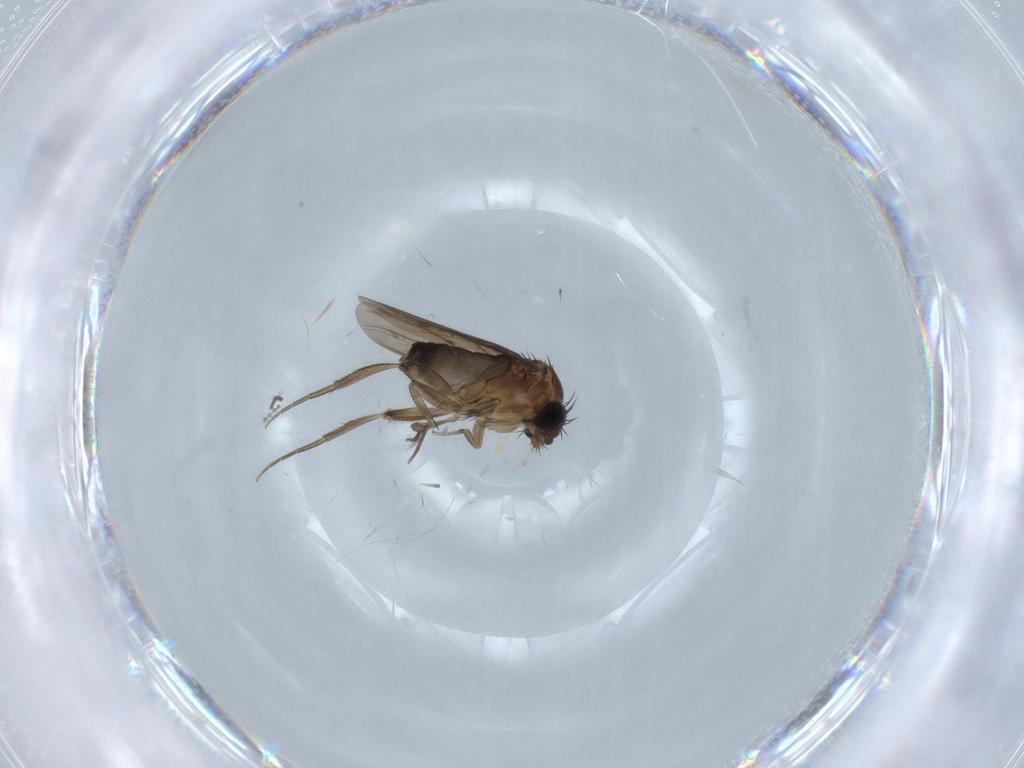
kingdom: Animalia
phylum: Arthropoda
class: Insecta
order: Diptera
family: Limoniidae
